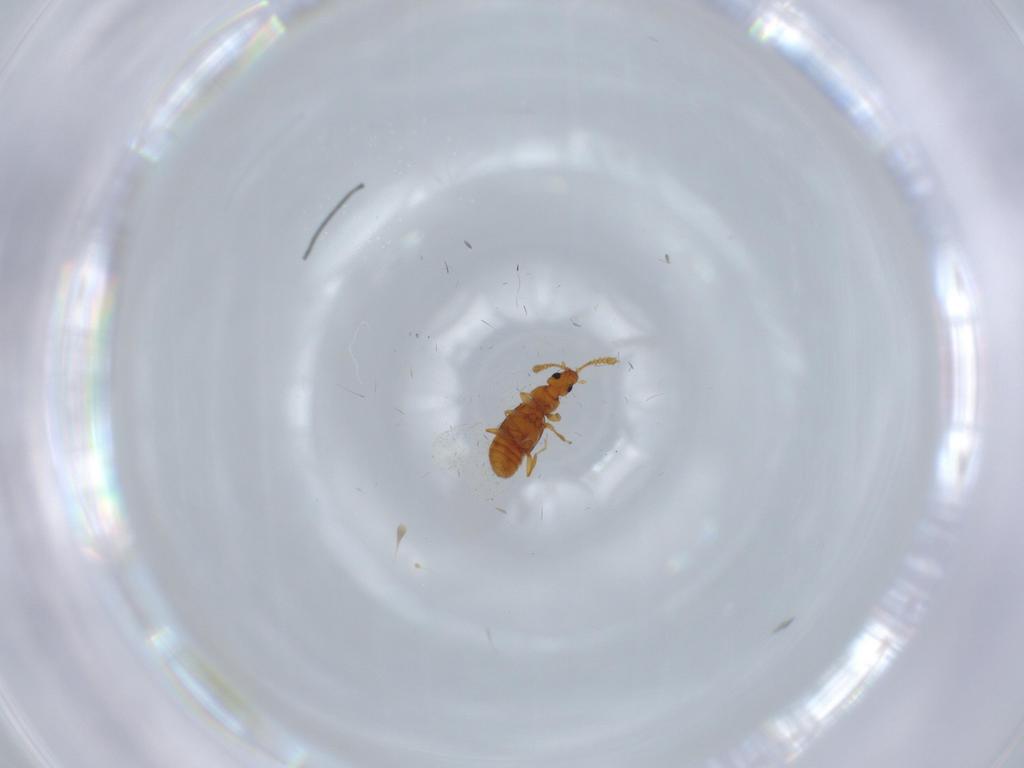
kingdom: Animalia
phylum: Arthropoda
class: Insecta
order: Coleoptera
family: Staphylinidae
